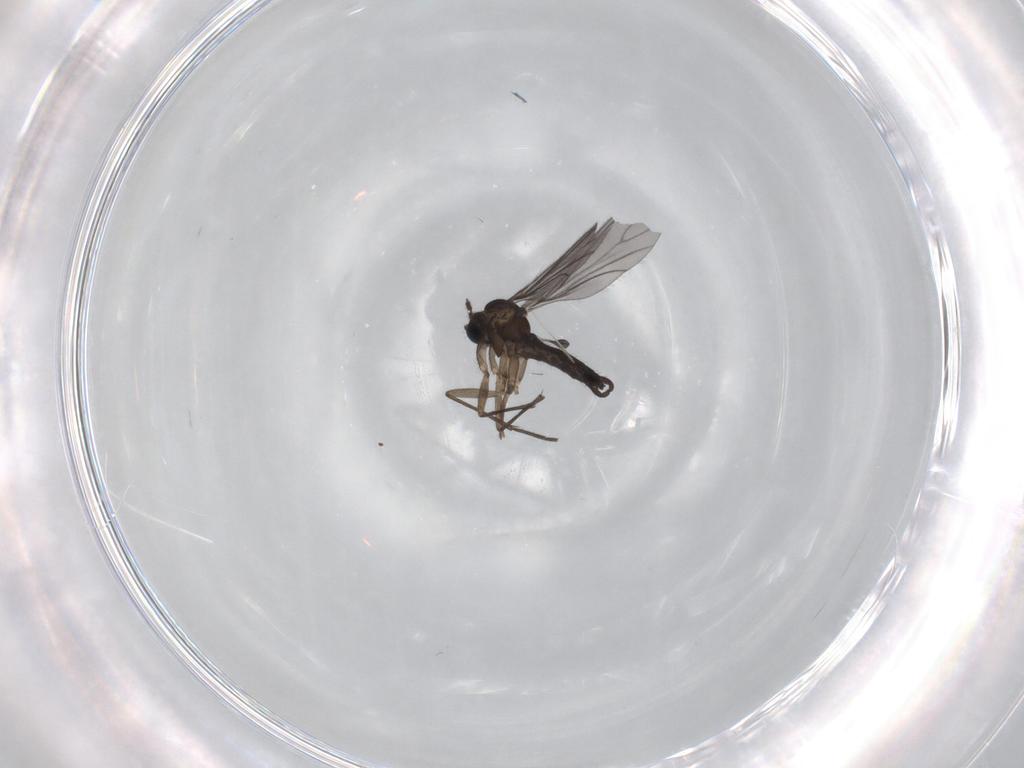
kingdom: Animalia
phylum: Arthropoda
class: Insecta
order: Diptera
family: Sciaridae
